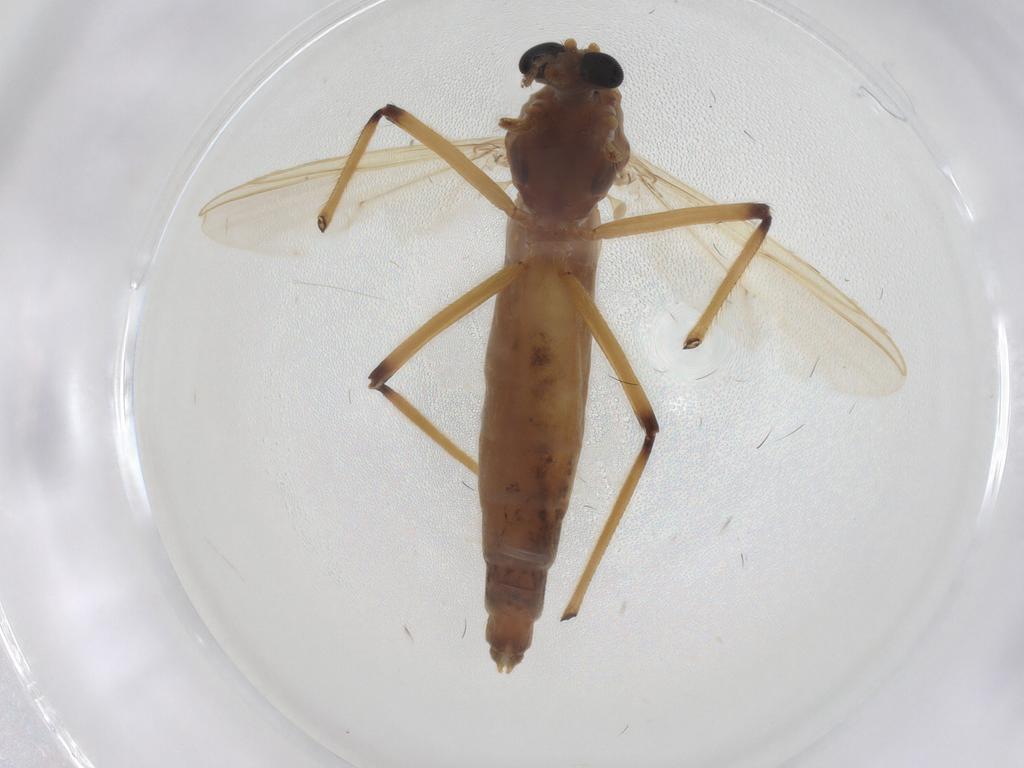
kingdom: Animalia
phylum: Arthropoda
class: Insecta
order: Diptera
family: Chironomidae
